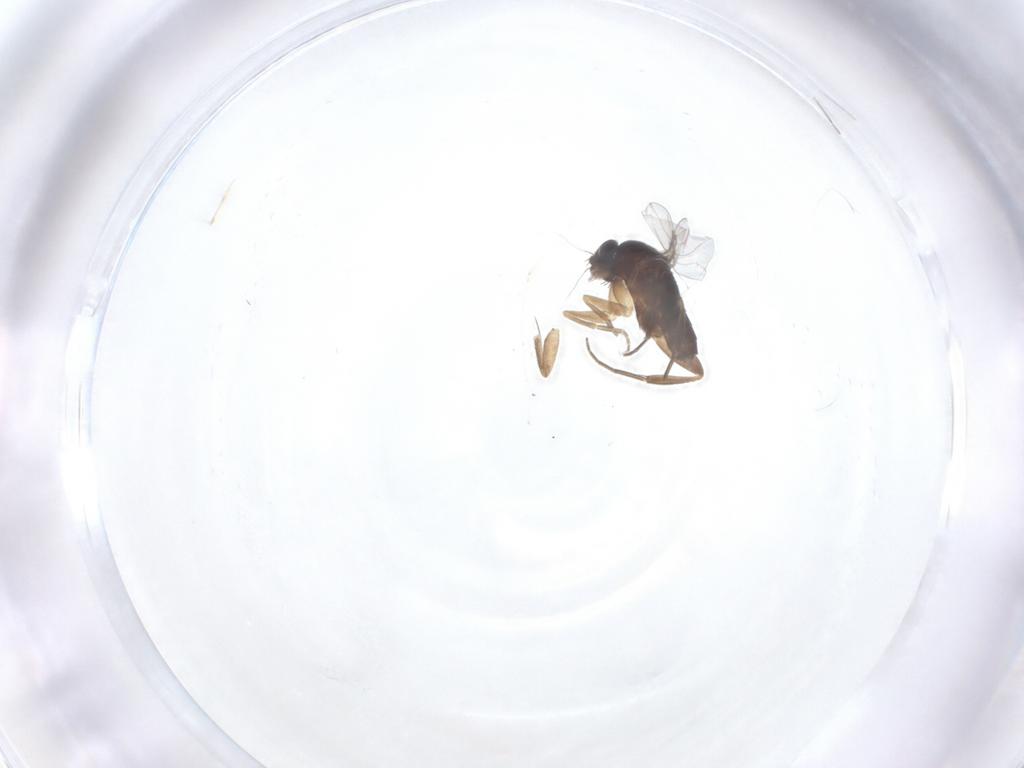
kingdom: Animalia
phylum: Arthropoda
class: Insecta
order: Diptera
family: Phoridae
